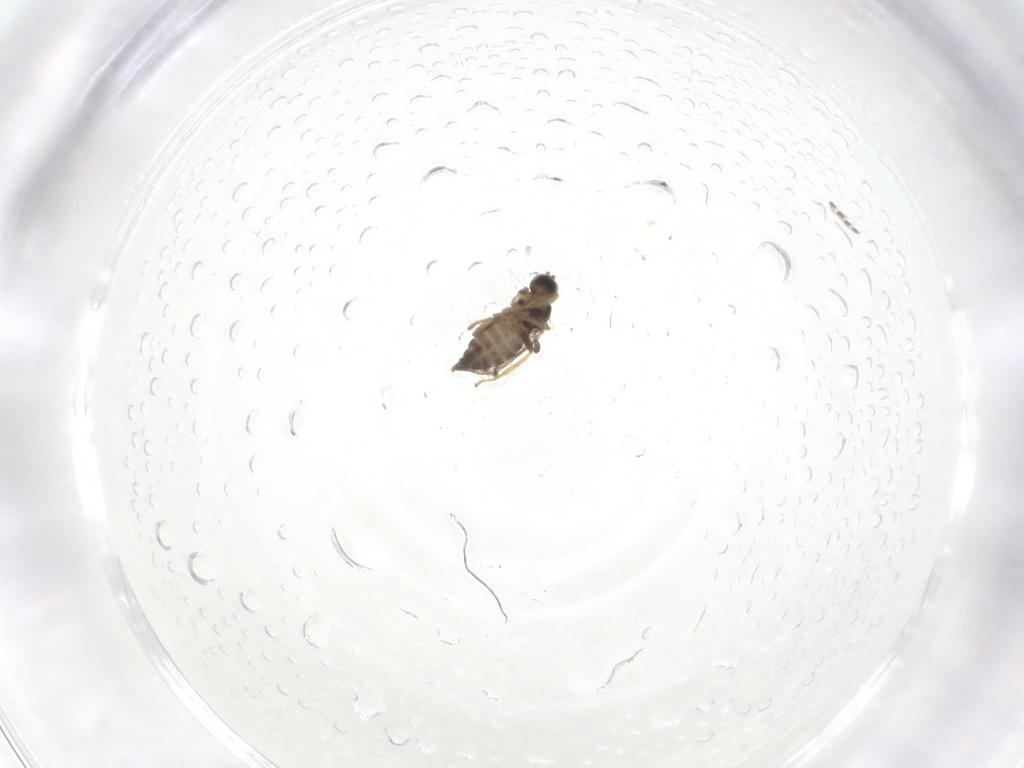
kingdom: Animalia
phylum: Arthropoda
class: Insecta
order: Diptera
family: Hybotidae
